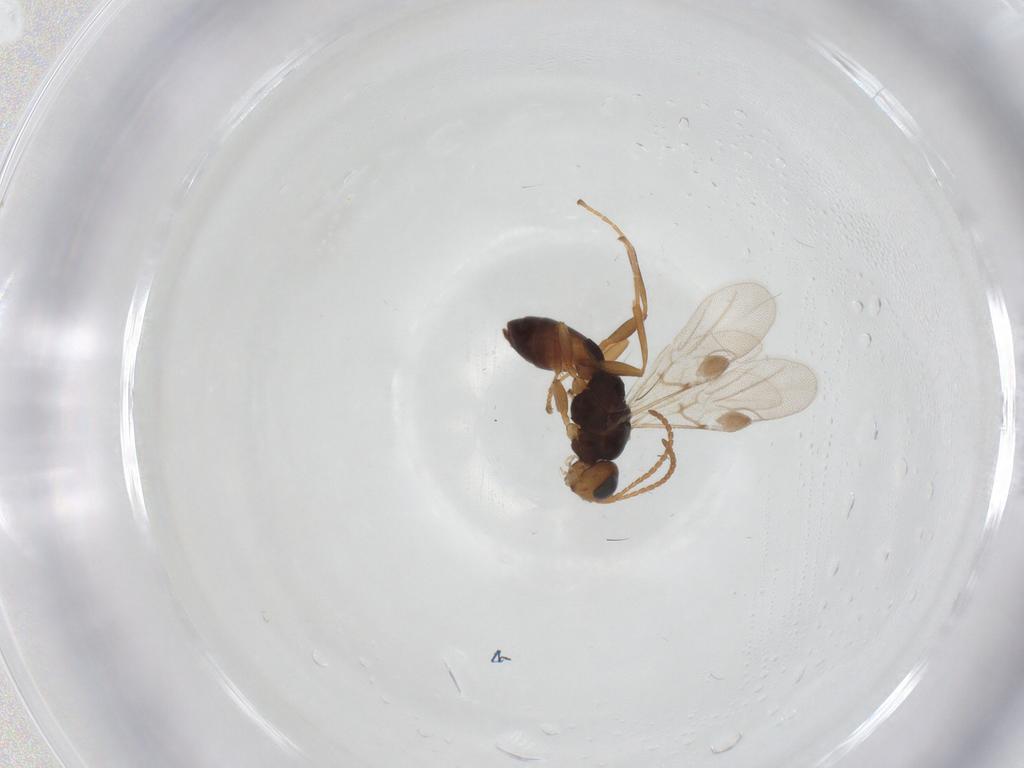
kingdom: Animalia
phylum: Arthropoda
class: Insecta
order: Hymenoptera
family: Braconidae
